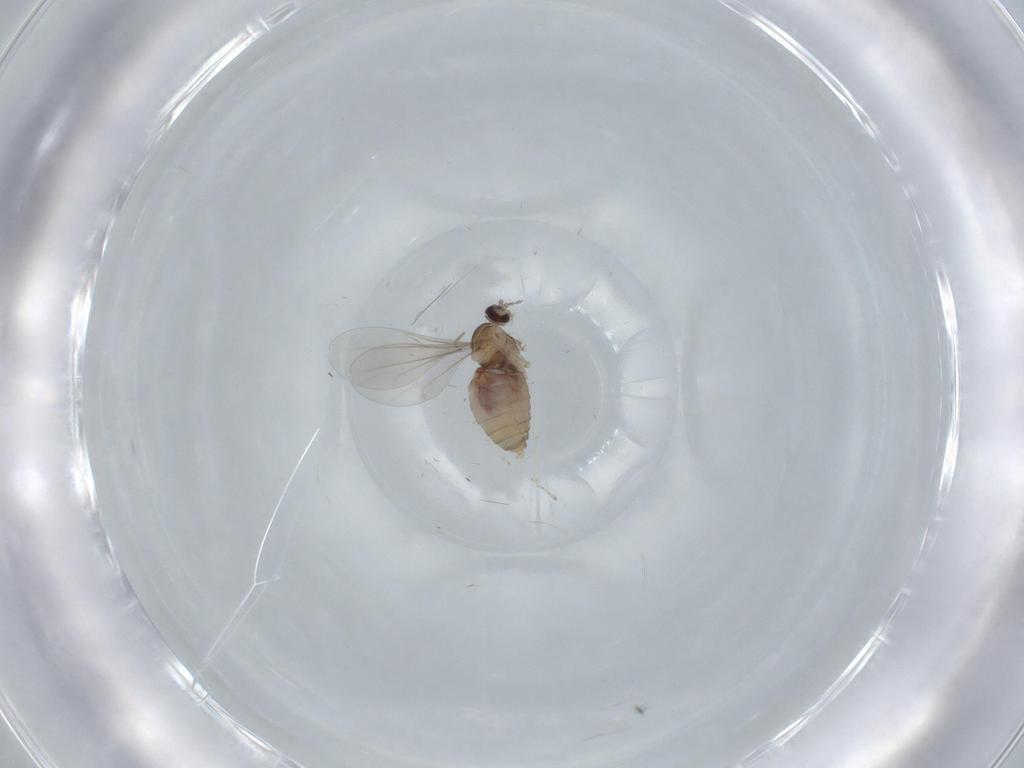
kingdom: Animalia
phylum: Arthropoda
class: Insecta
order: Diptera
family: Cecidomyiidae
